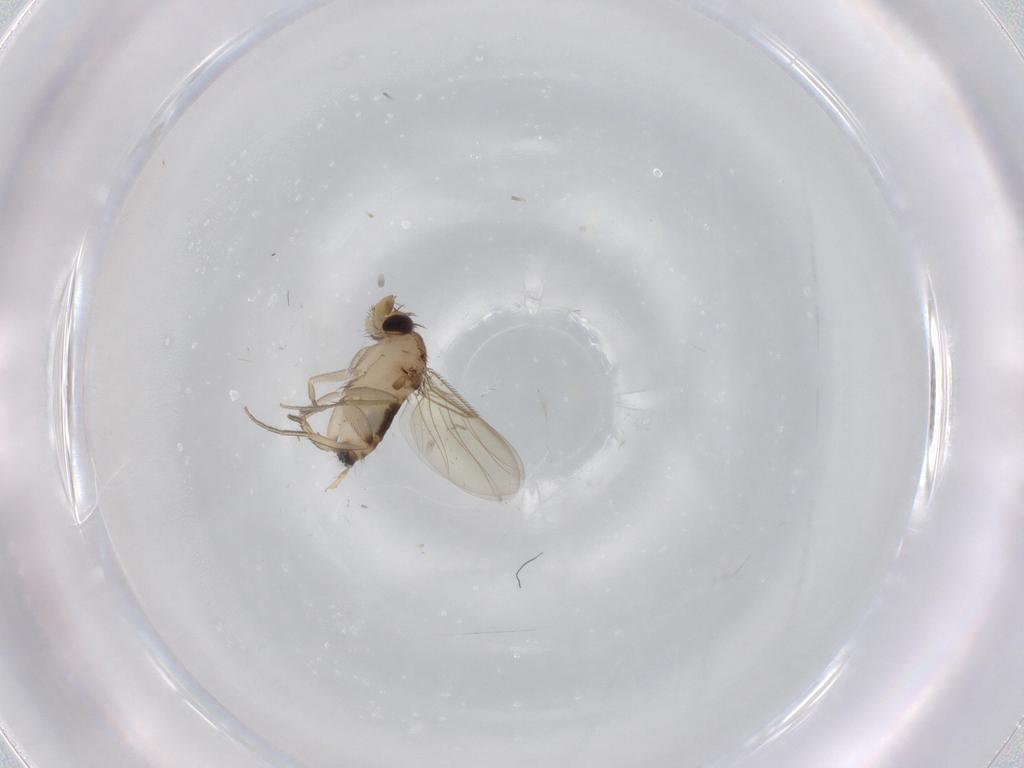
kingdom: Animalia
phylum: Arthropoda
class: Insecta
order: Diptera
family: Phoridae
